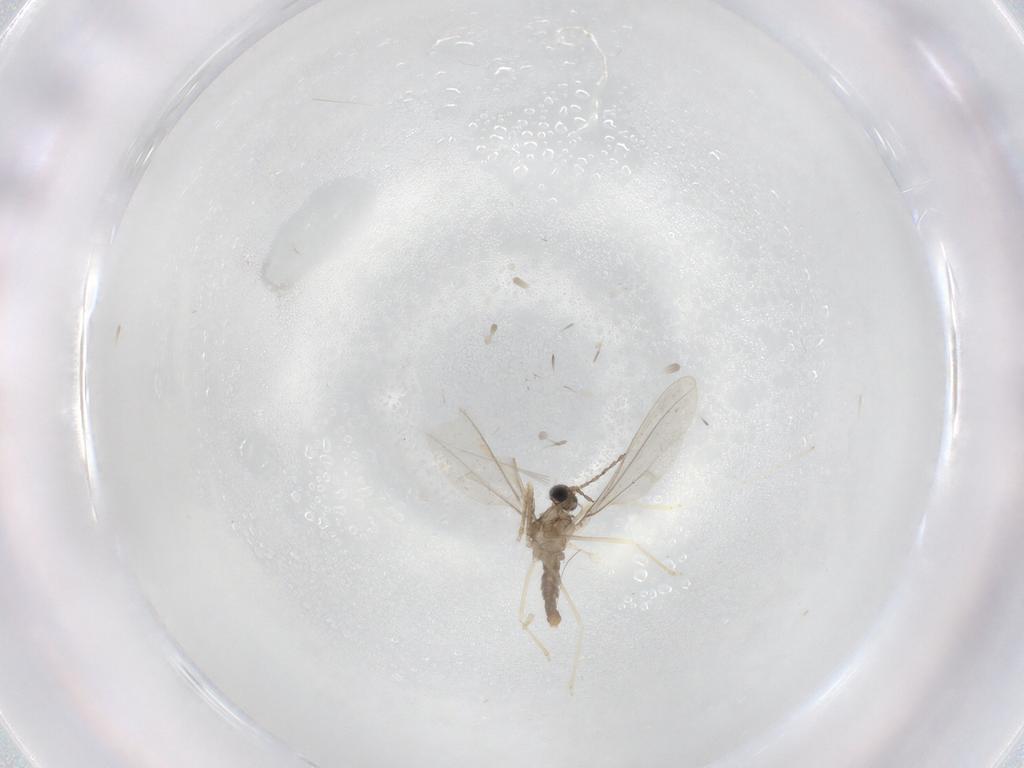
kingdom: Animalia
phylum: Arthropoda
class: Insecta
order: Diptera
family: Cecidomyiidae
